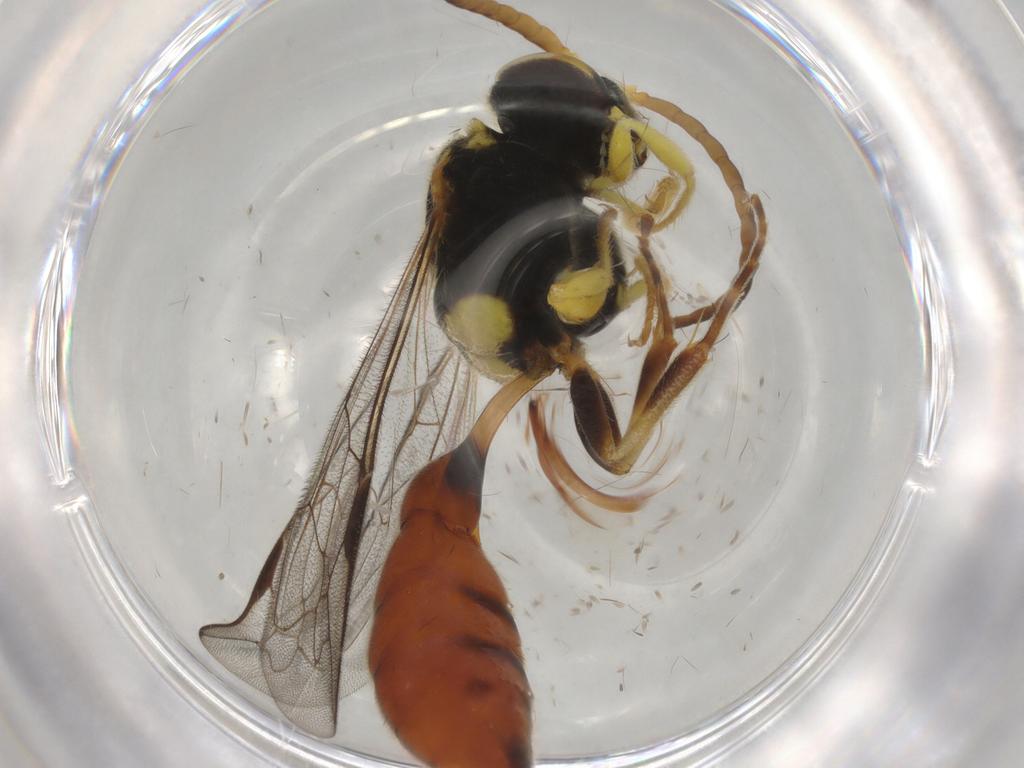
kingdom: Animalia
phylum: Arthropoda
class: Insecta
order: Hymenoptera
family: Crabronidae
